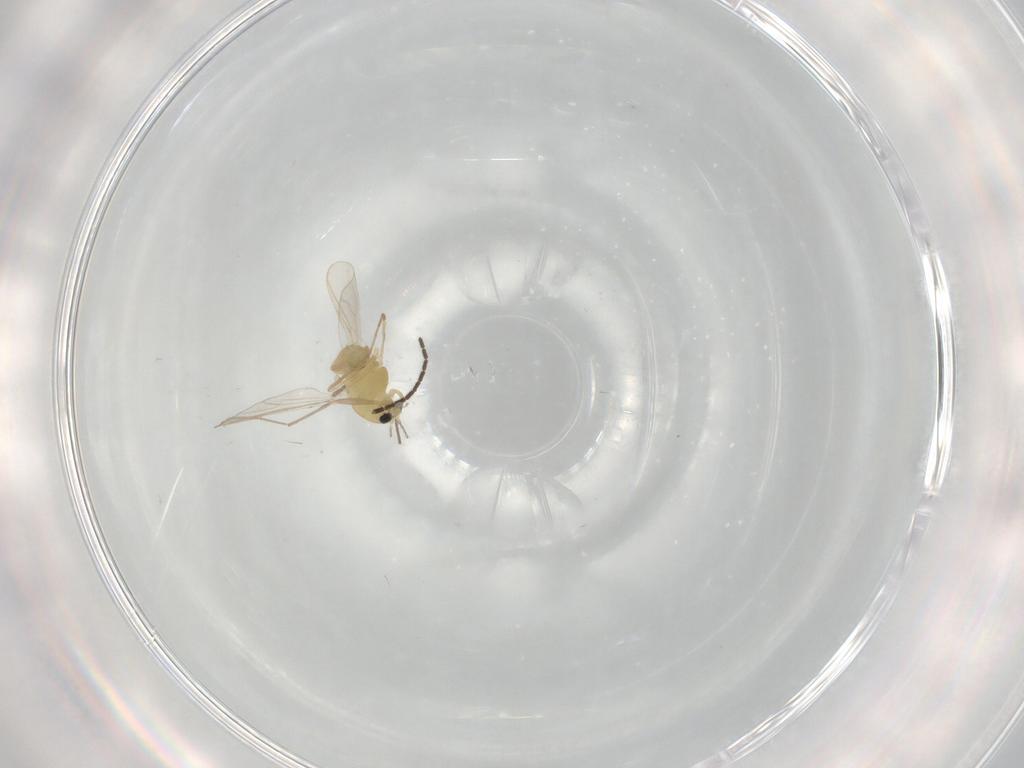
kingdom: Animalia
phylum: Arthropoda
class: Insecta
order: Diptera
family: Chironomidae
